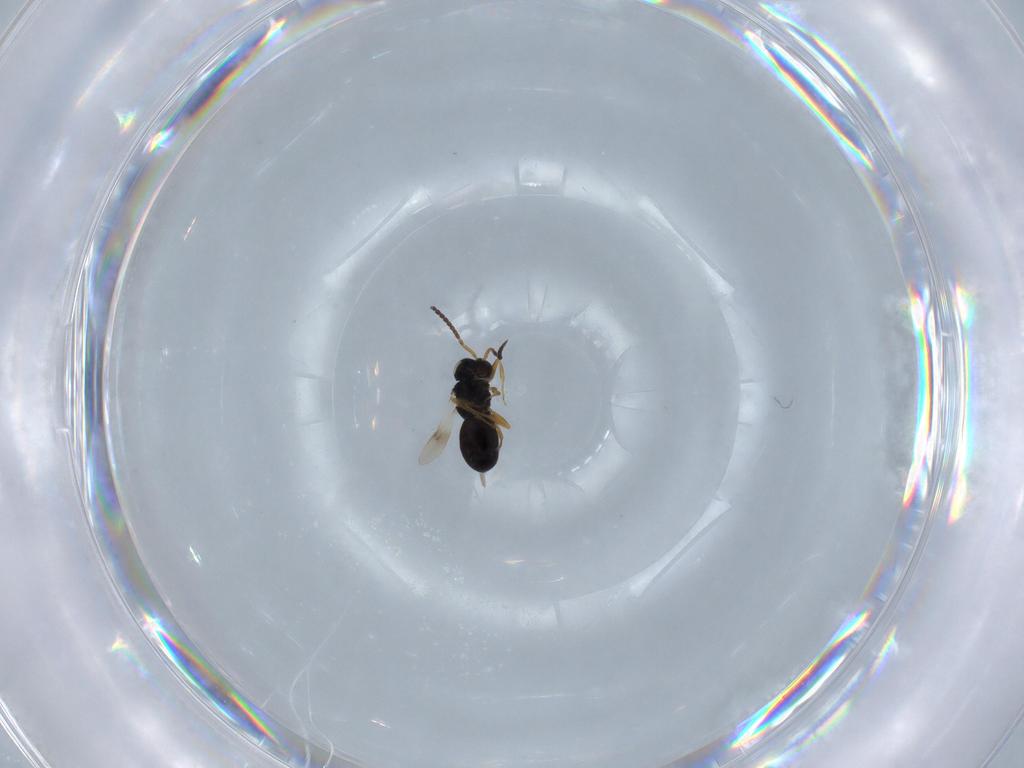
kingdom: Animalia
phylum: Arthropoda
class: Insecta
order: Hymenoptera
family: Scelionidae
